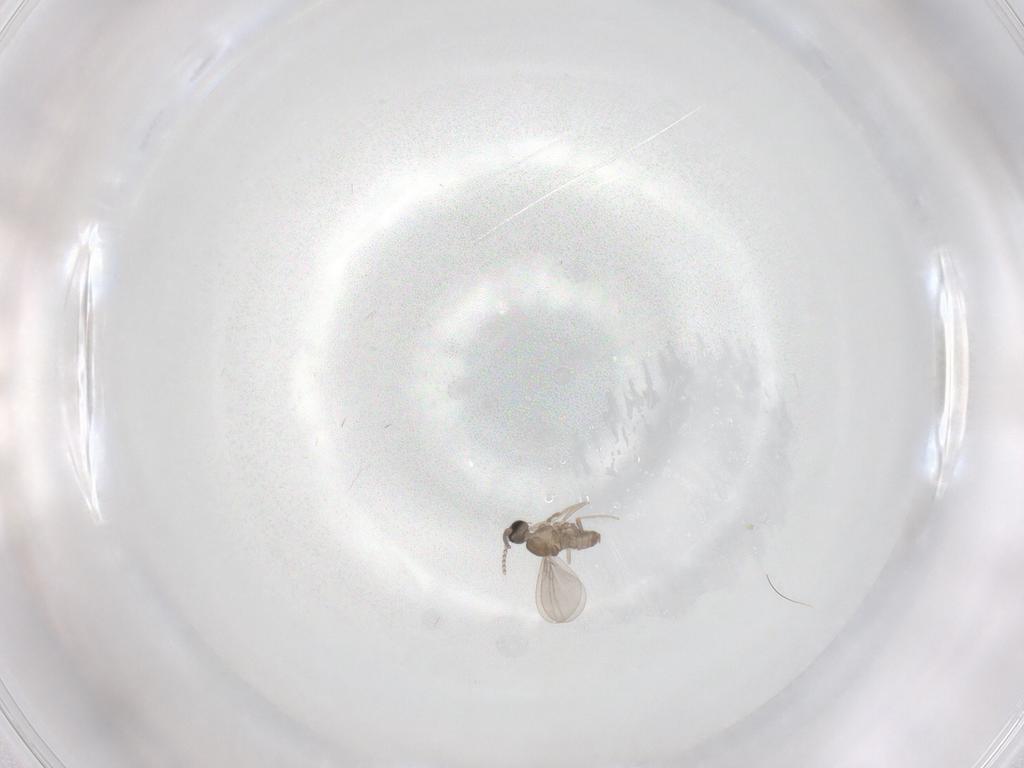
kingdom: Animalia
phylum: Arthropoda
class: Insecta
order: Diptera
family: Cecidomyiidae
